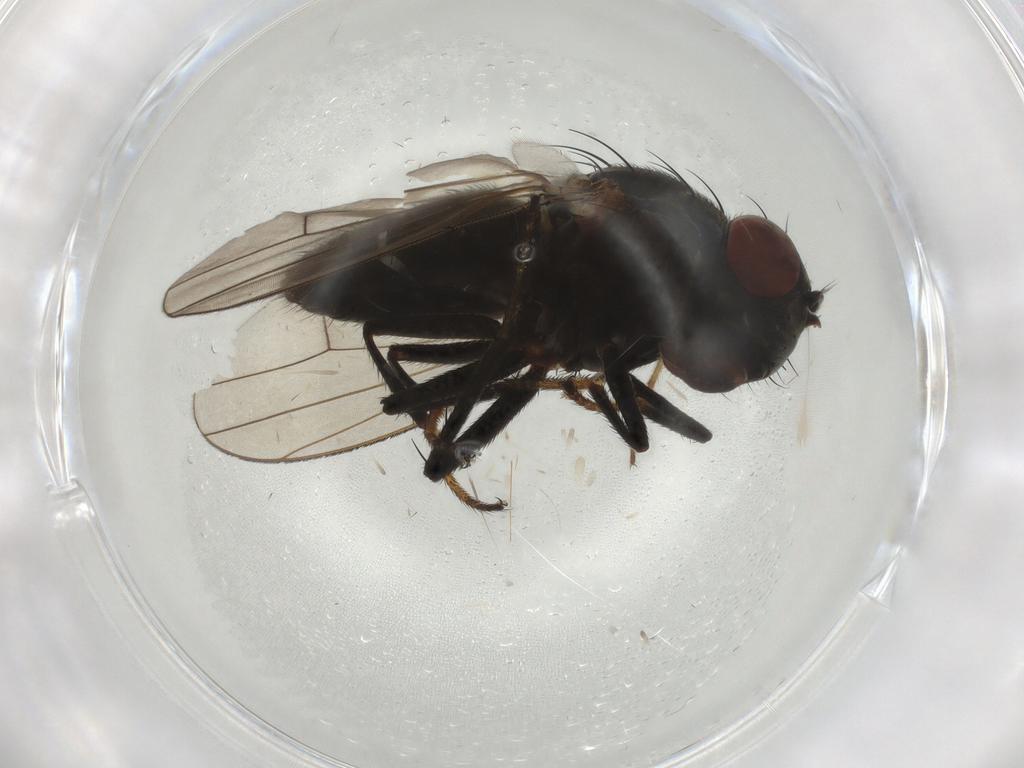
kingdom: Animalia
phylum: Arthropoda
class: Insecta
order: Diptera
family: Ephydridae
